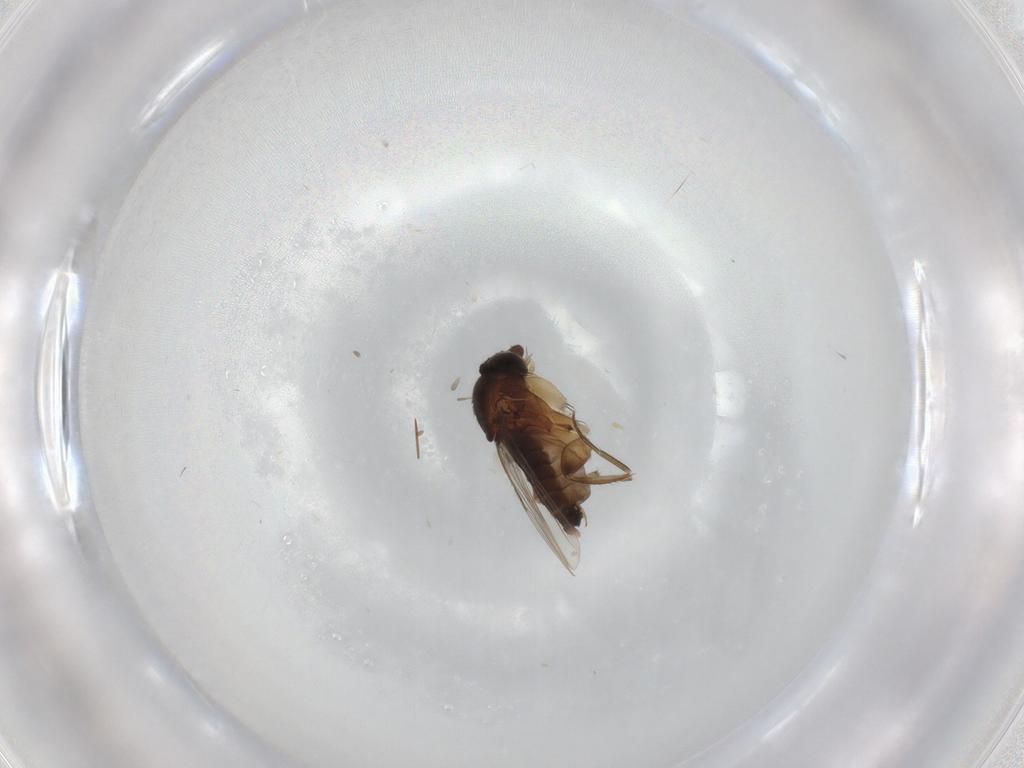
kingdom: Animalia
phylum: Arthropoda
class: Insecta
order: Diptera
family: Phoridae
